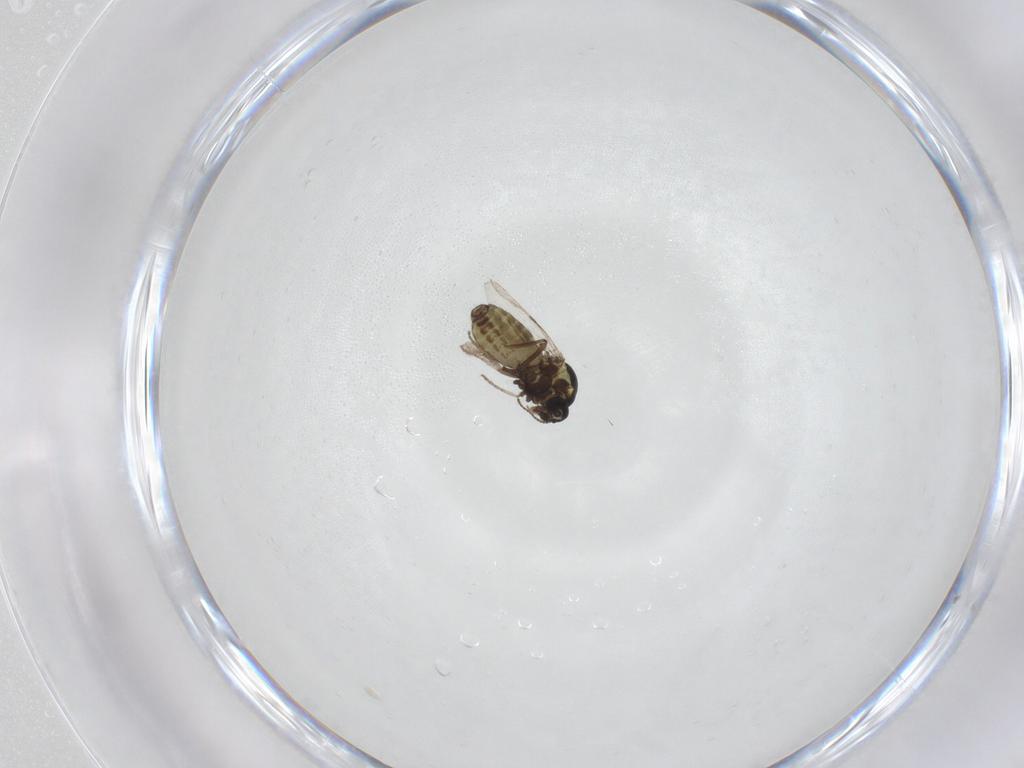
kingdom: Animalia
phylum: Arthropoda
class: Insecta
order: Diptera
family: Ceratopogonidae
